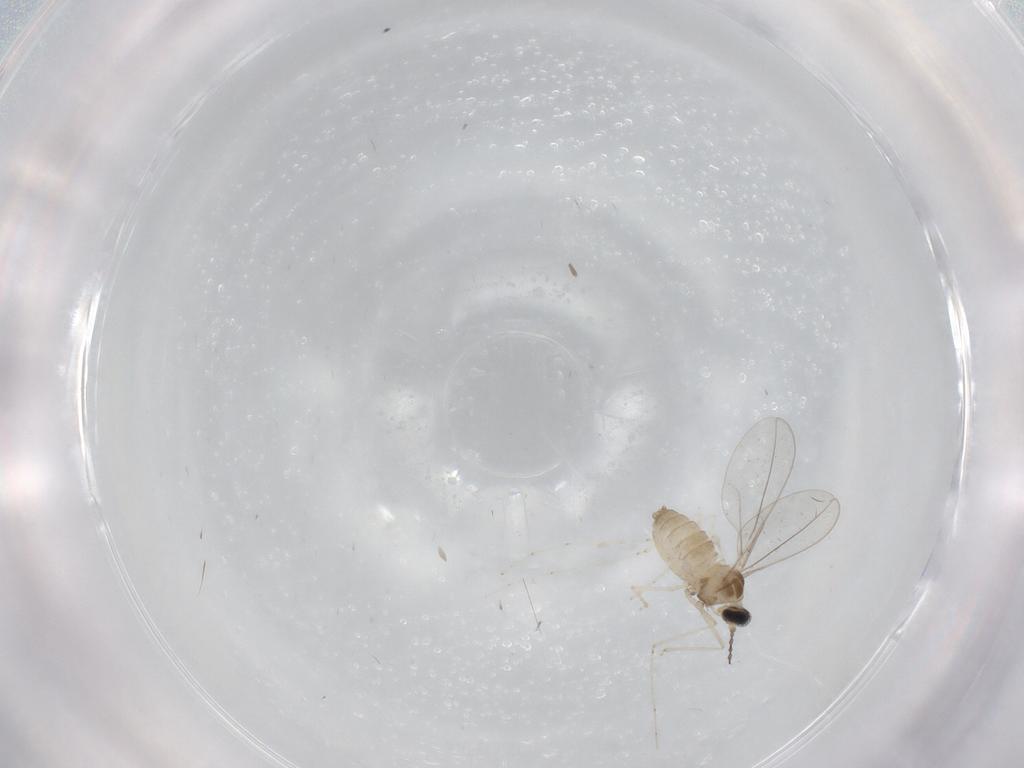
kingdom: Animalia
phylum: Arthropoda
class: Insecta
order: Diptera
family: Cecidomyiidae
